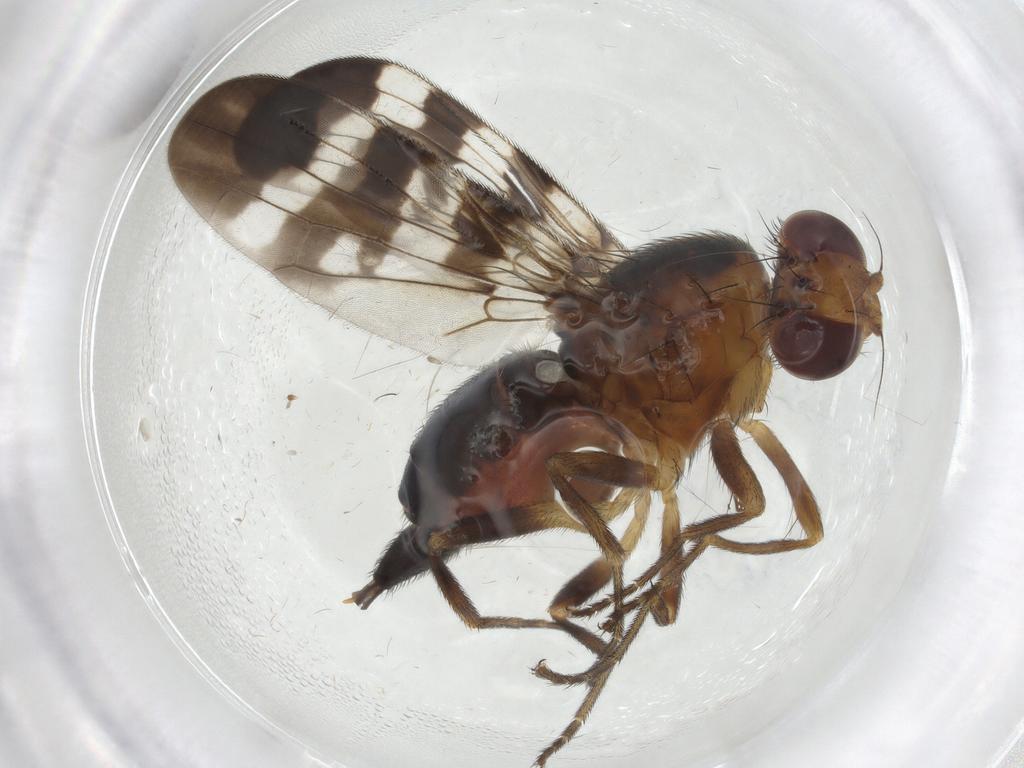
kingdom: Animalia
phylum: Arthropoda
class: Insecta
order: Diptera
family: Tephritidae
